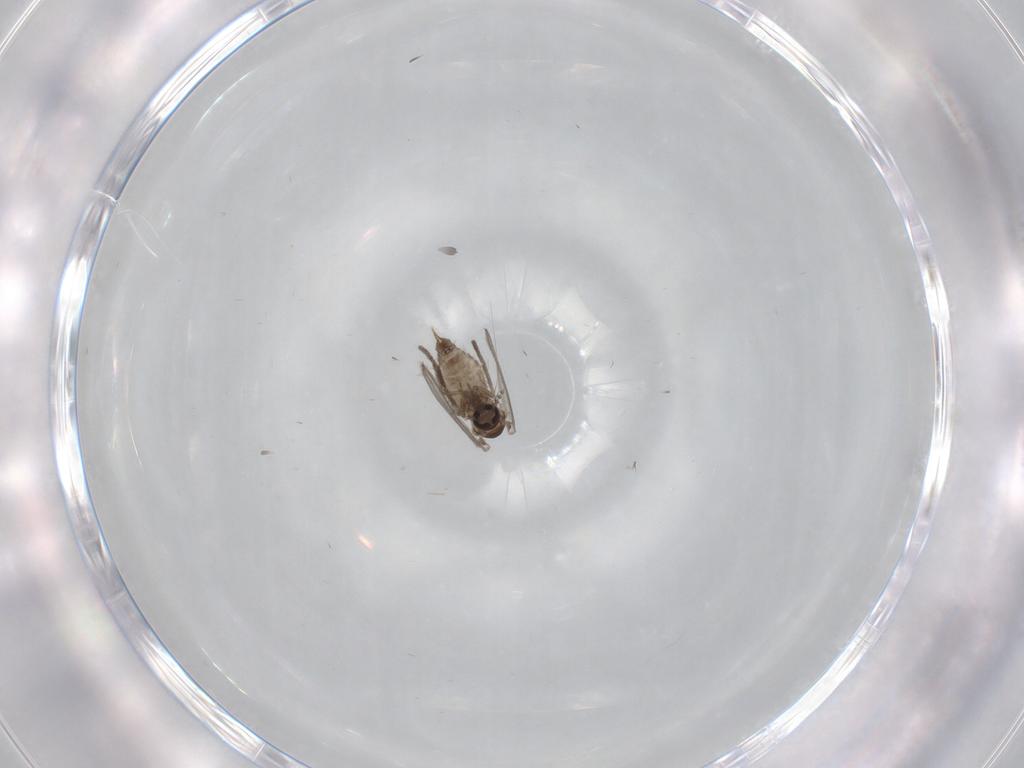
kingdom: Animalia
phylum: Arthropoda
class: Insecta
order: Diptera
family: Psychodidae
